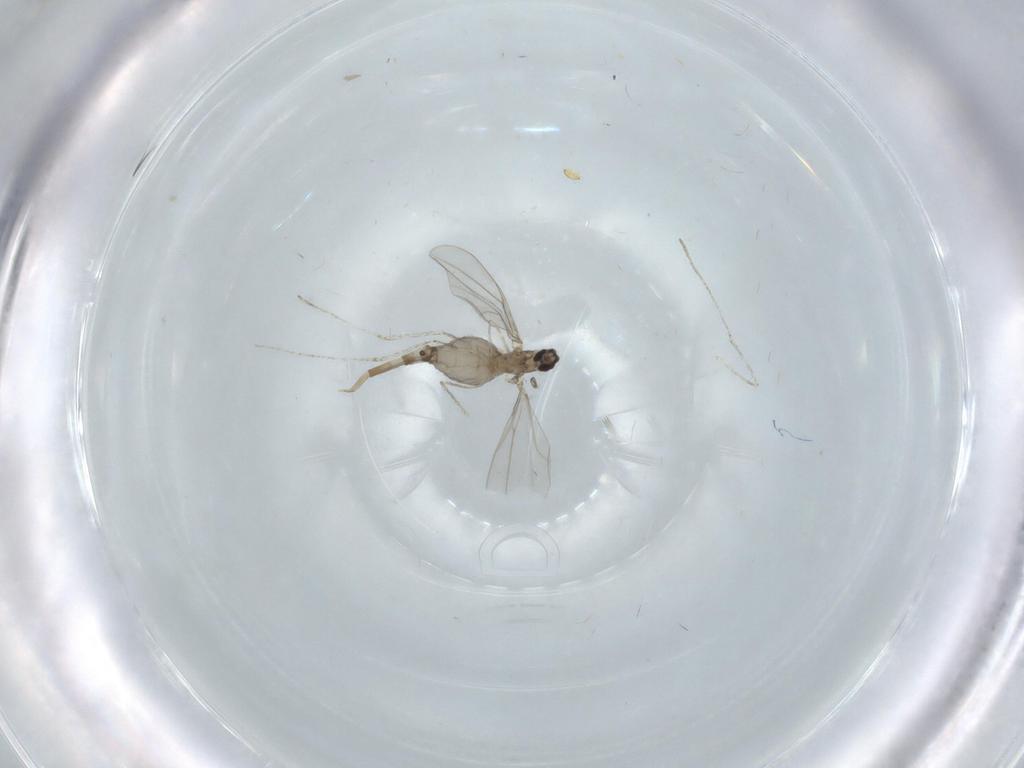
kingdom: Animalia
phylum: Arthropoda
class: Insecta
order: Diptera
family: Cecidomyiidae
